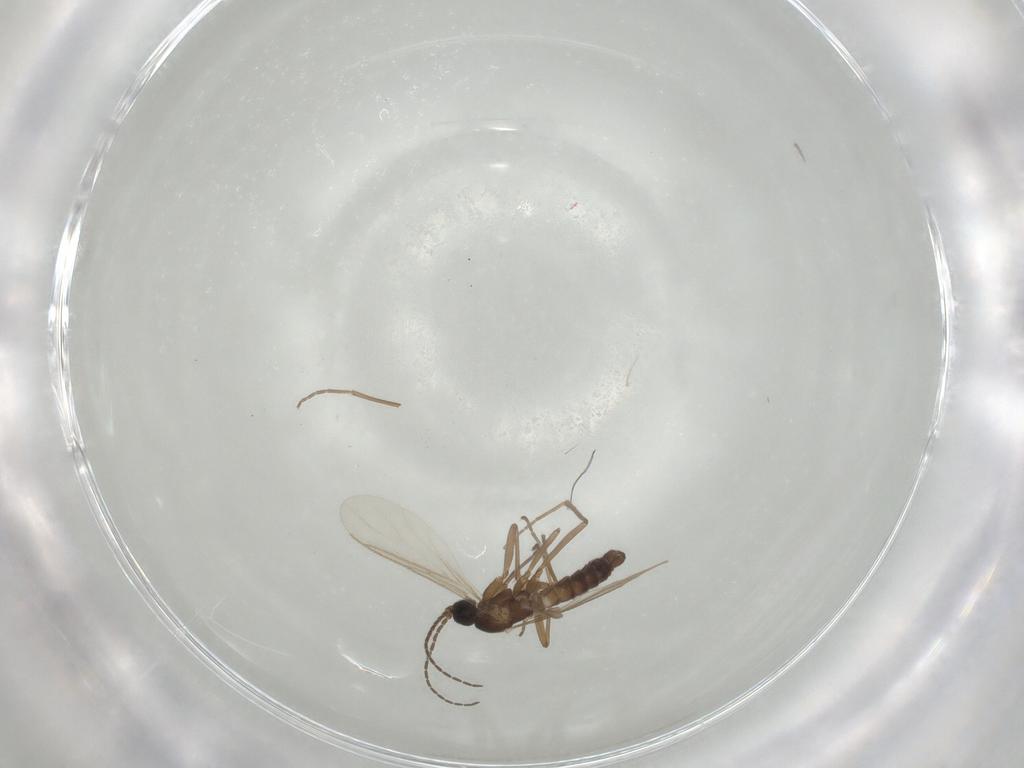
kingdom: Animalia
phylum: Arthropoda
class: Insecta
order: Diptera
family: Sciaridae
